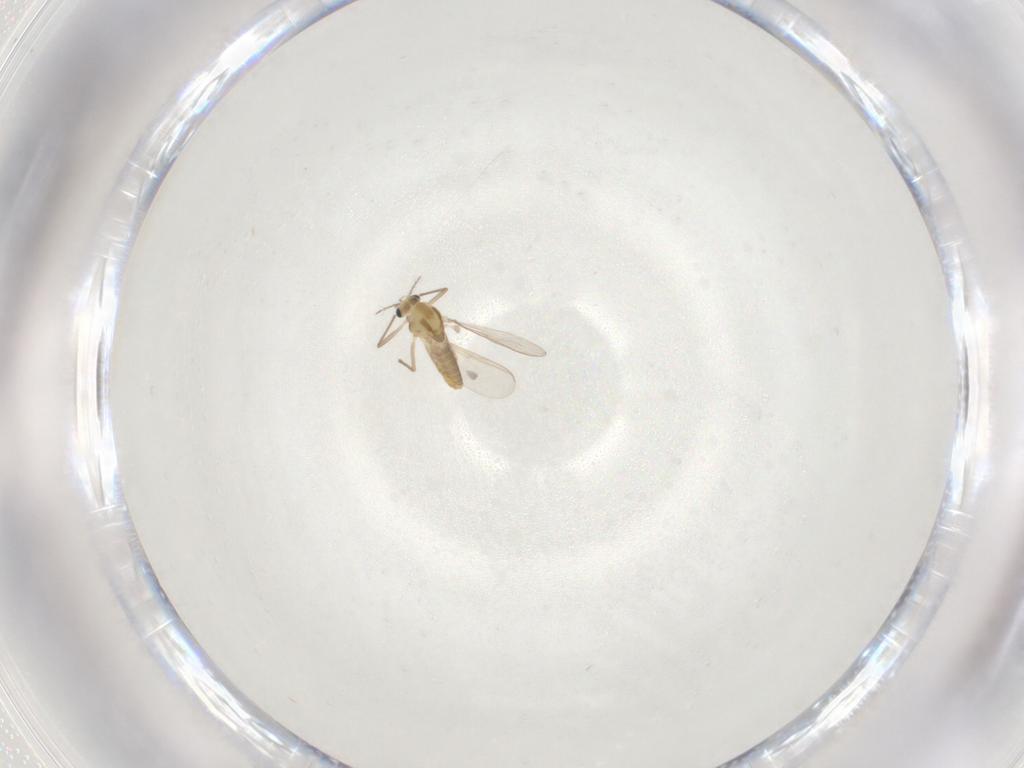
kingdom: Animalia
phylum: Arthropoda
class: Insecta
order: Diptera
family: Chironomidae
